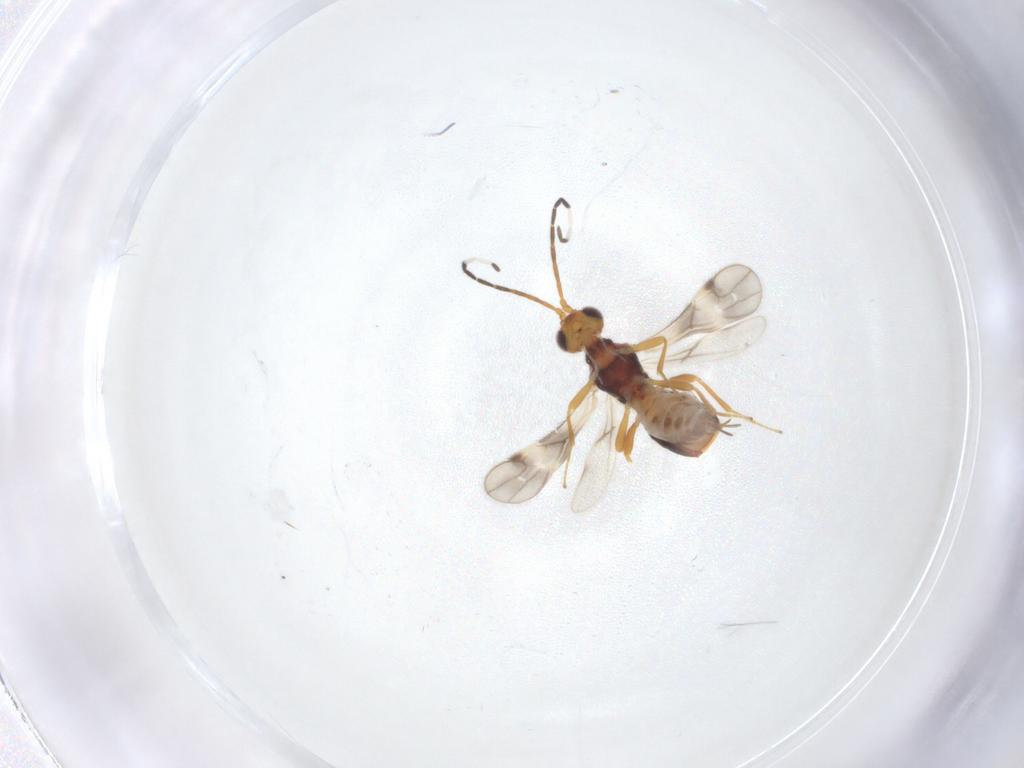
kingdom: Animalia
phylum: Arthropoda
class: Insecta
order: Hymenoptera
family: Braconidae
